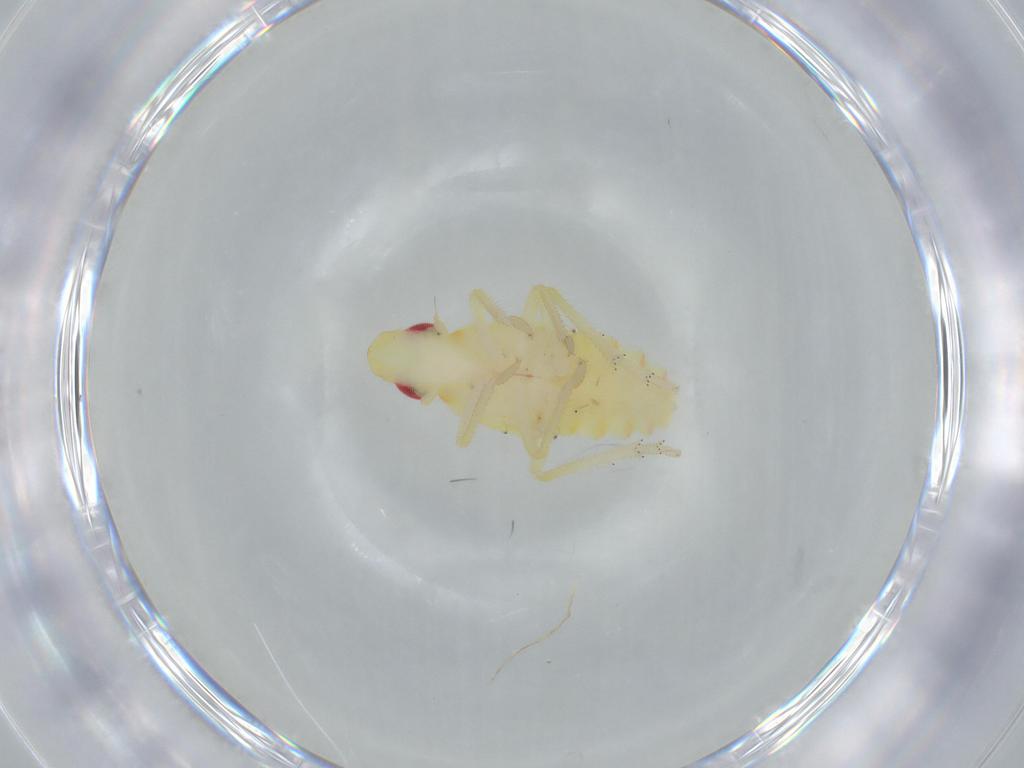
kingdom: Animalia
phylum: Arthropoda
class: Insecta
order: Hemiptera
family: Tropiduchidae
